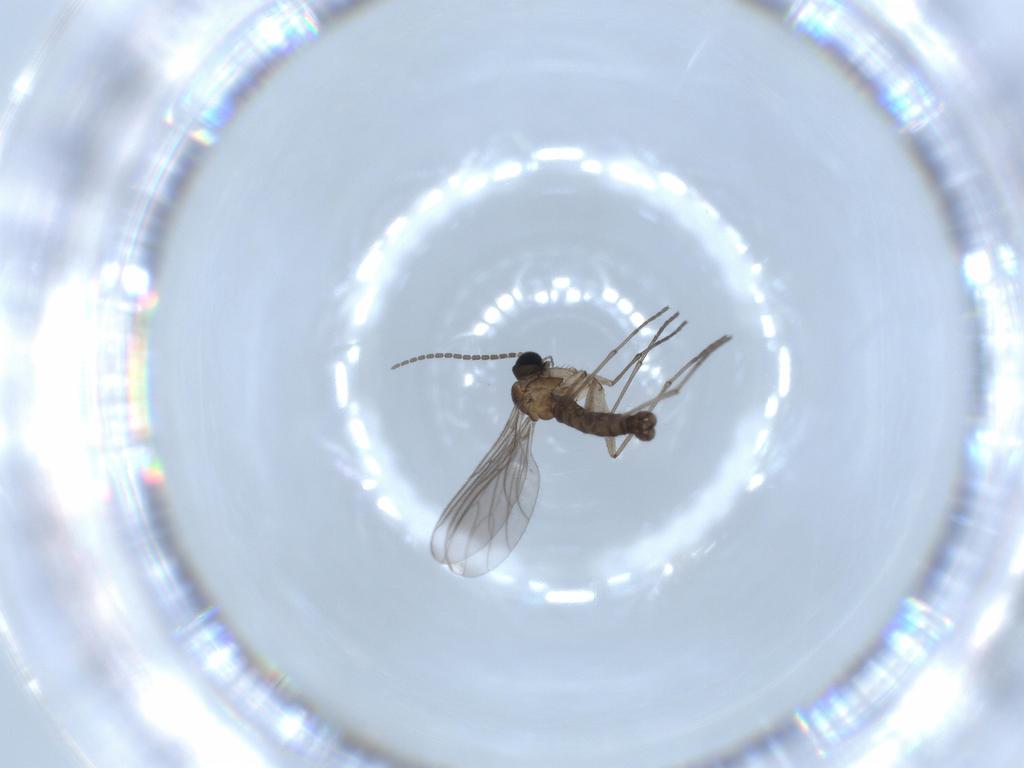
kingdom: Animalia
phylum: Arthropoda
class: Insecta
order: Diptera
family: Sciaridae
